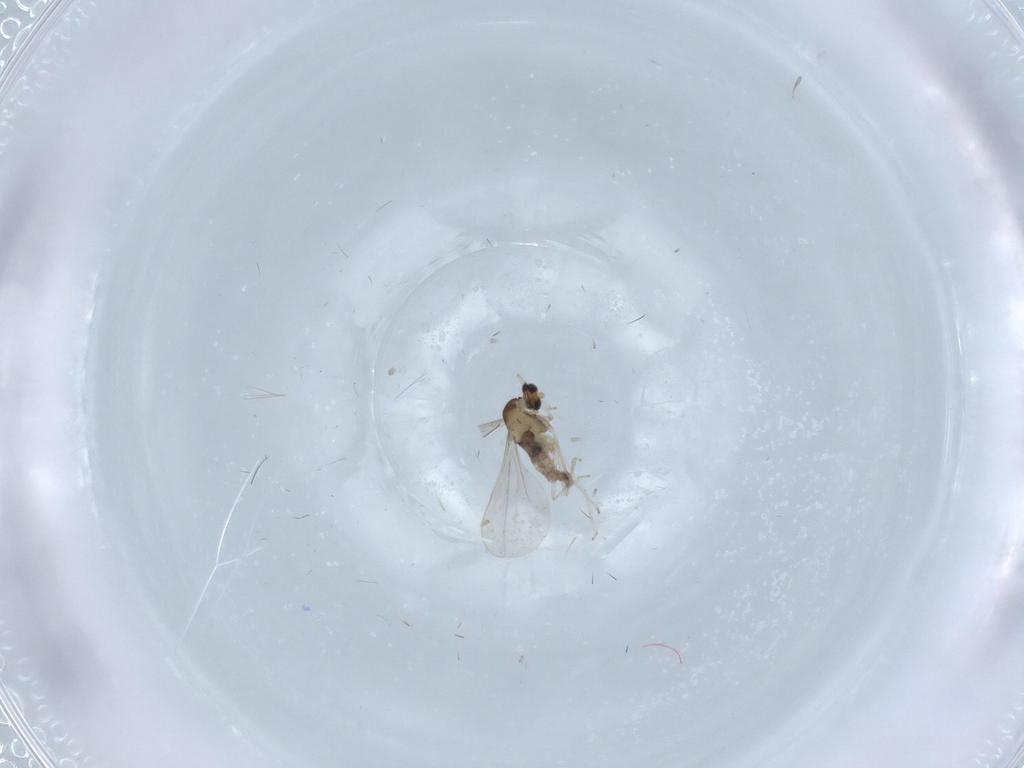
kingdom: Animalia
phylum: Arthropoda
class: Insecta
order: Diptera
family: Cecidomyiidae
